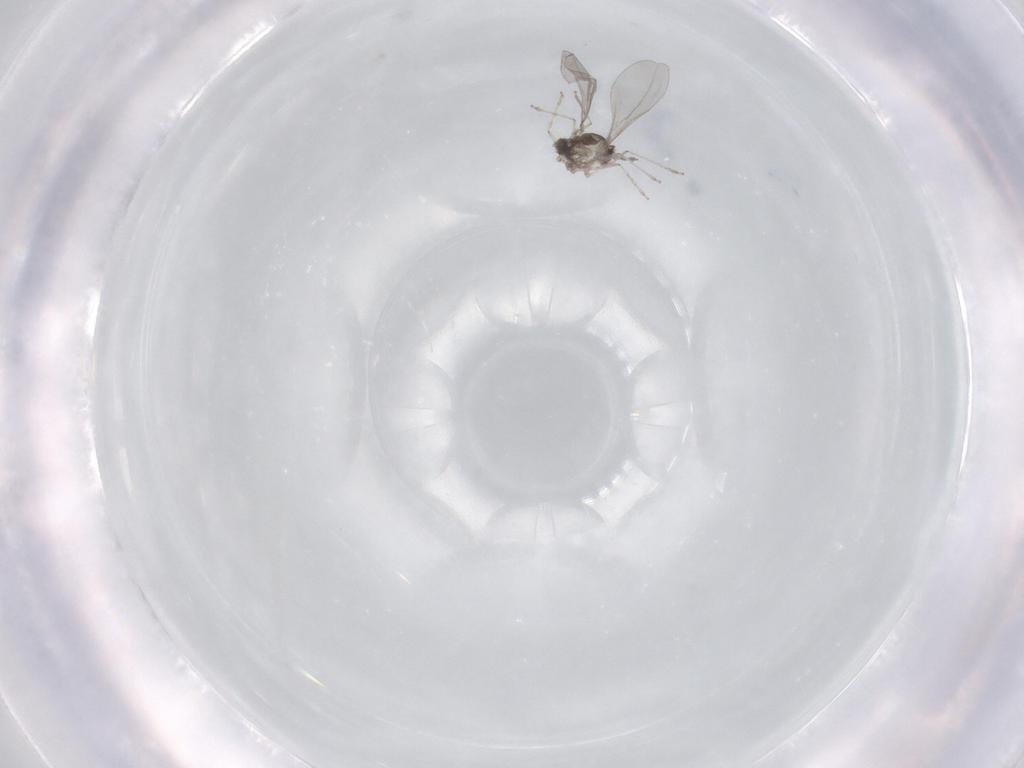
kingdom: Animalia
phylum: Arthropoda
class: Insecta
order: Diptera
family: Cecidomyiidae
